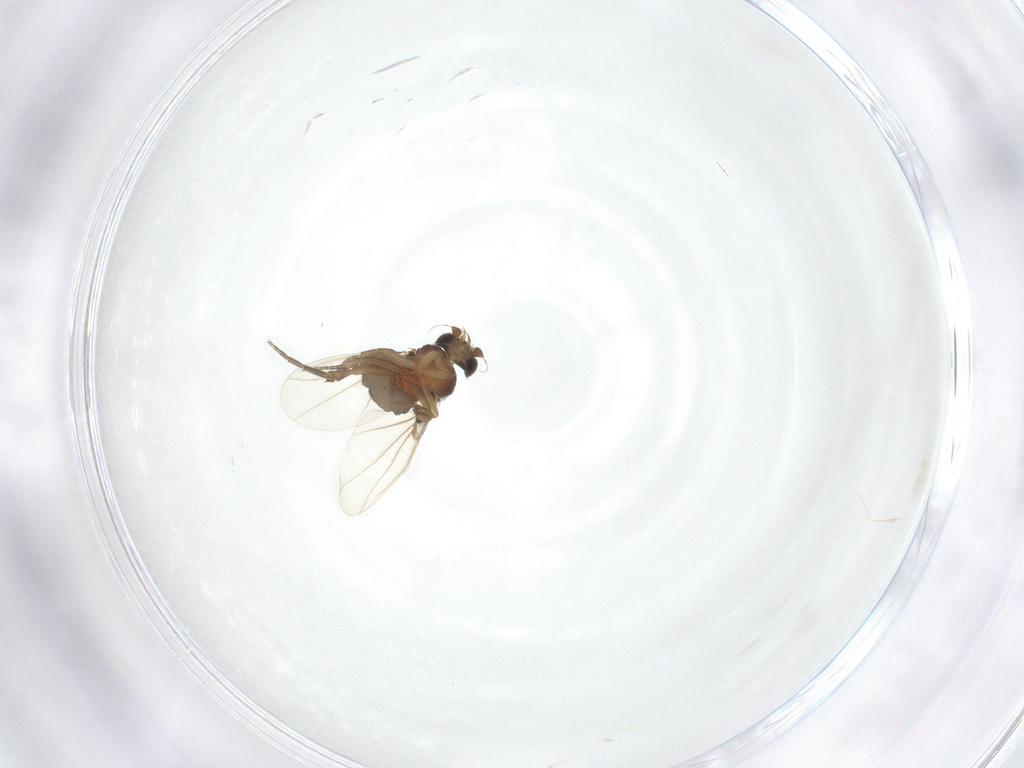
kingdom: Animalia
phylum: Arthropoda
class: Insecta
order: Diptera
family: Phoridae
